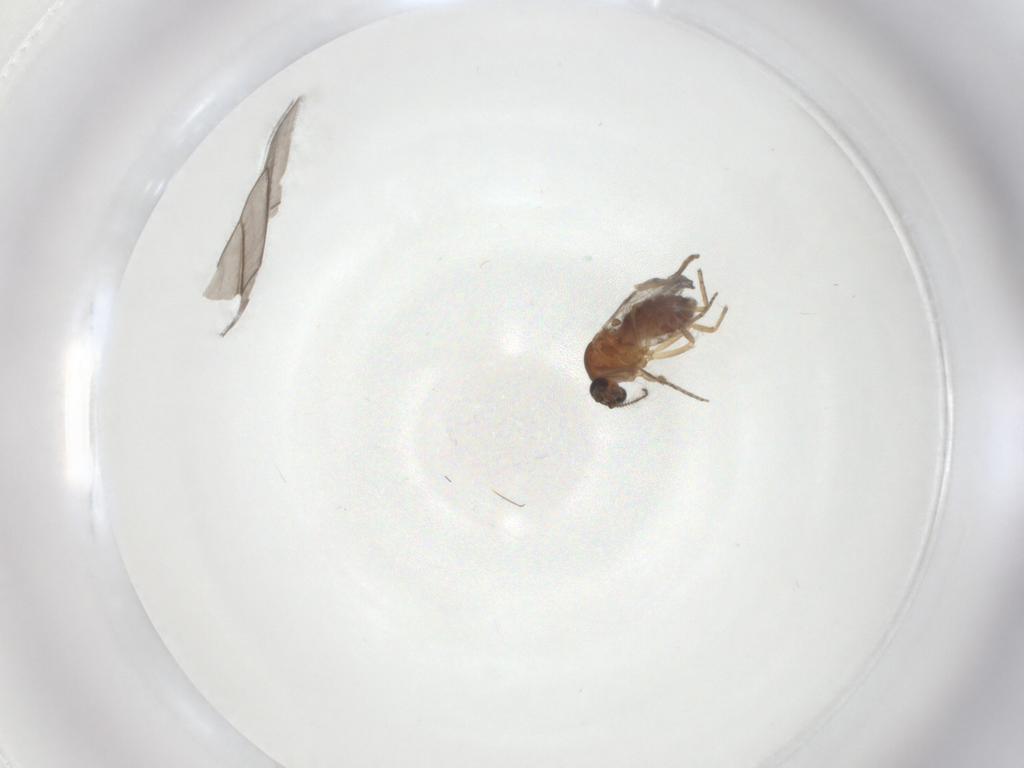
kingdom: Animalia
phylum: Arthropoda
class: Insecta
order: Diptera
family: Ceratopogonidae
